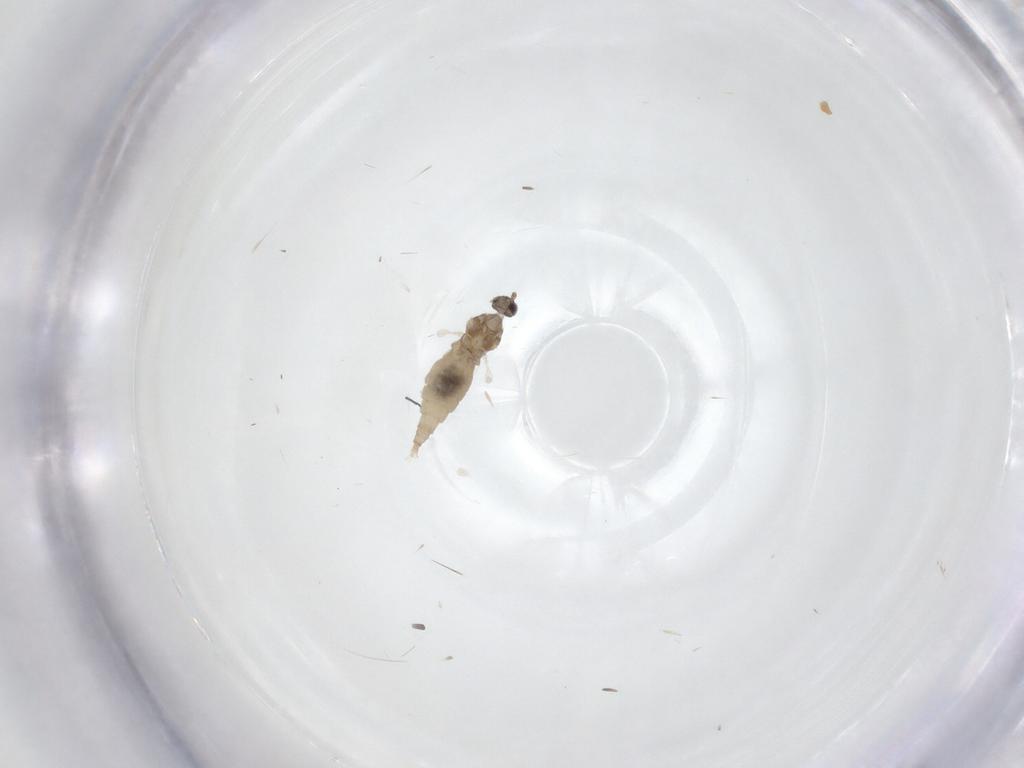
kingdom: Animalia
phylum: Arthropoda
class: Insecta
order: Diptera
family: Cecidomyiidae
